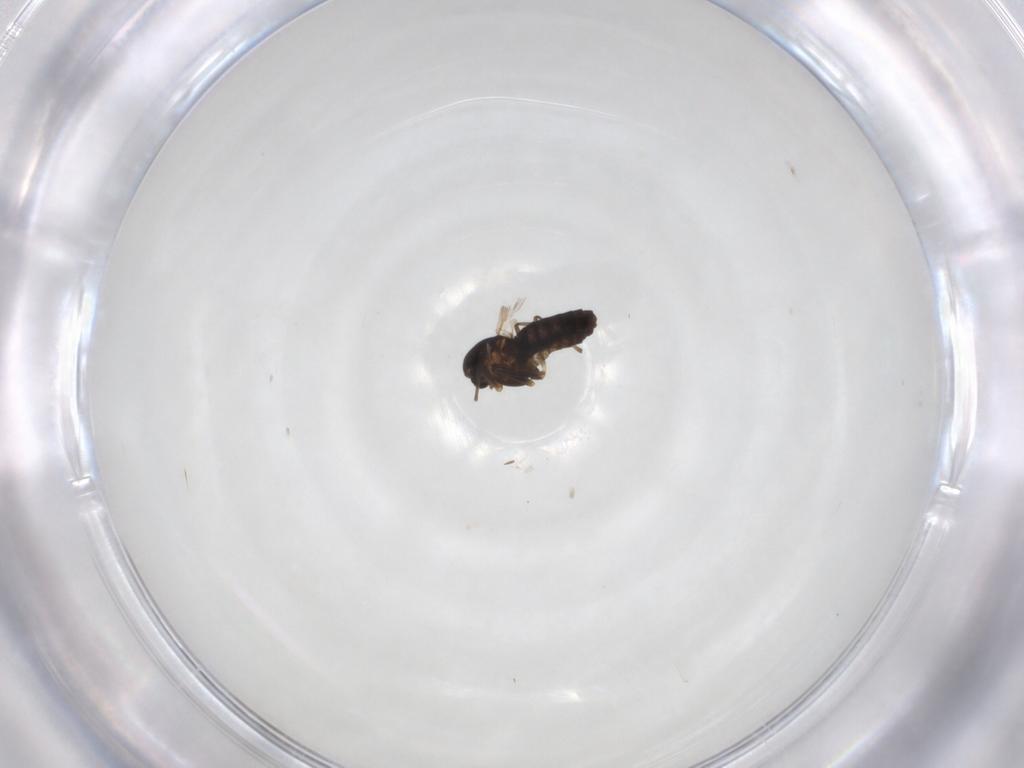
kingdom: Animalia
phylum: Arthropoda
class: Insecta
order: Diptera
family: Chironomidae
